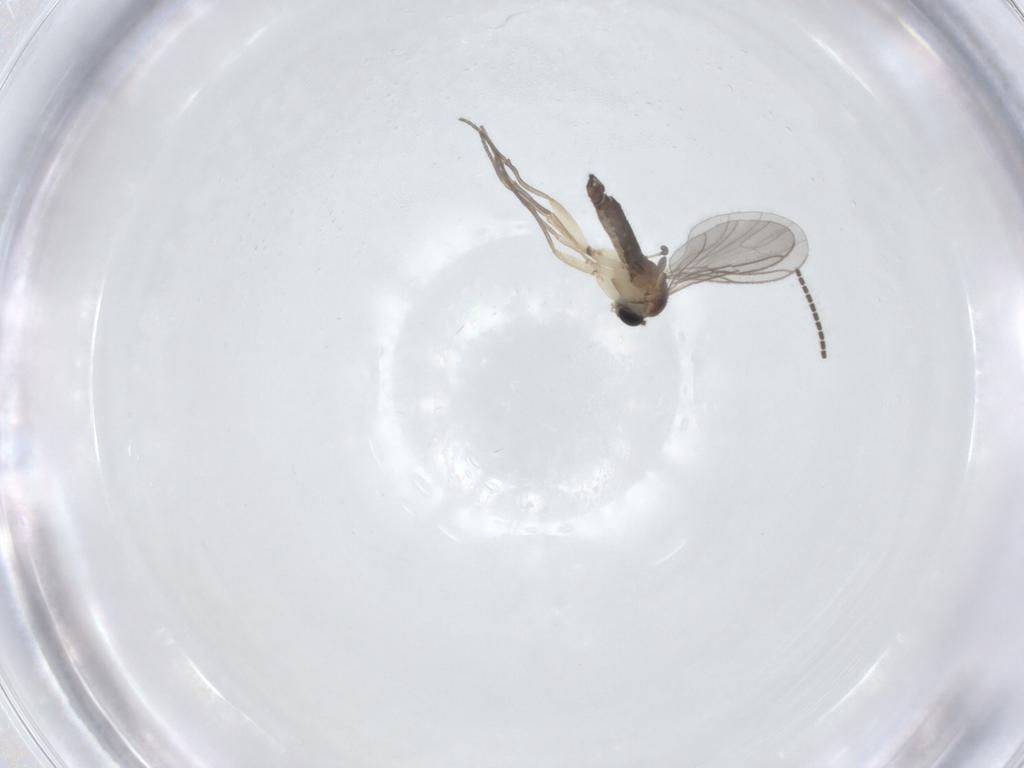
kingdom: Animalia
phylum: Arthropoda
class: Insecta
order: Diptera
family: Sciaridae
